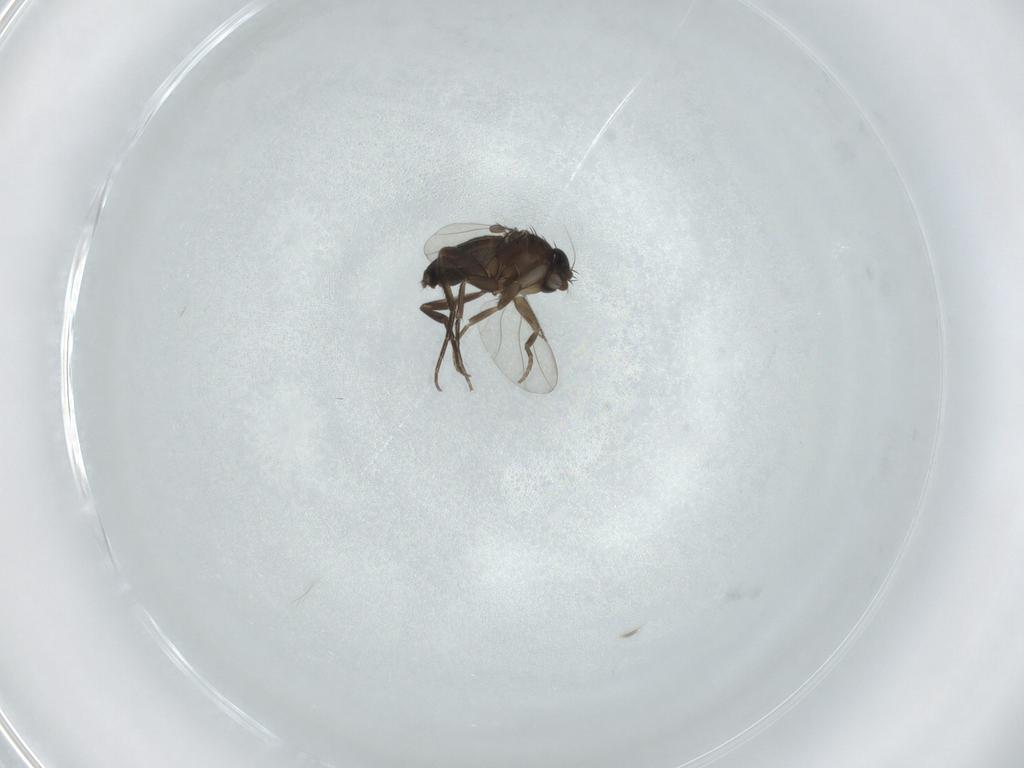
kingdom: Animalia
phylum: Arthropoda
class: Insecta
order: Diptera
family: Phoridae
